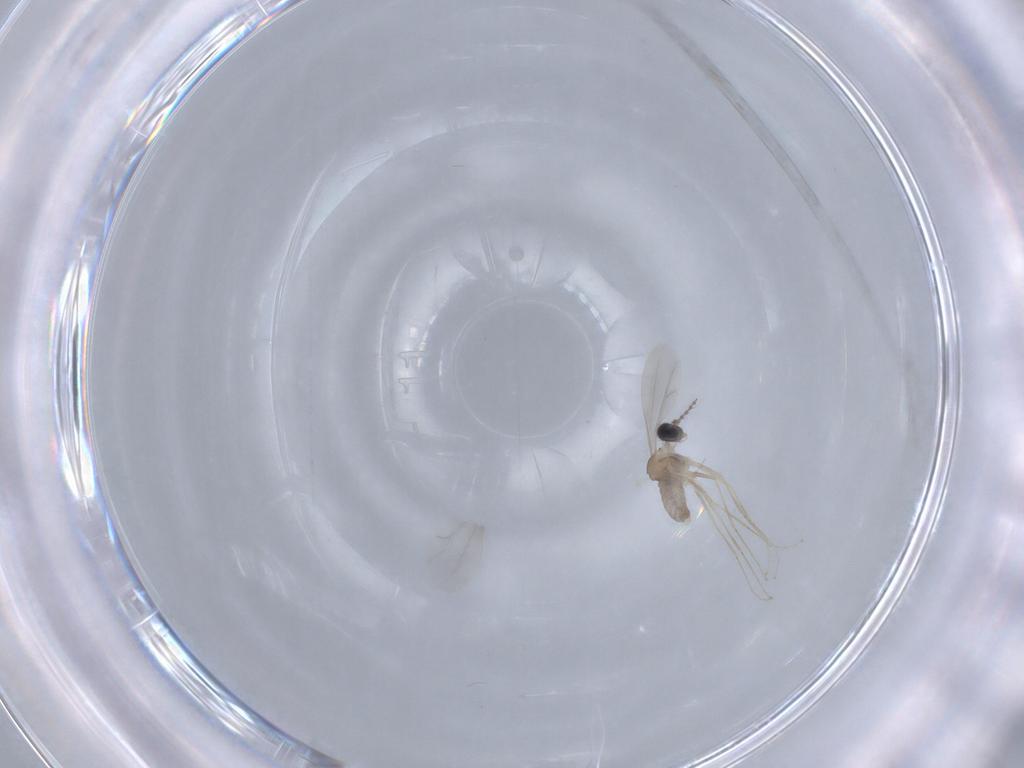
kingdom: Animalia
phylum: Arthropoda
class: Insecta
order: Diptera
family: Cecidomyiidae
